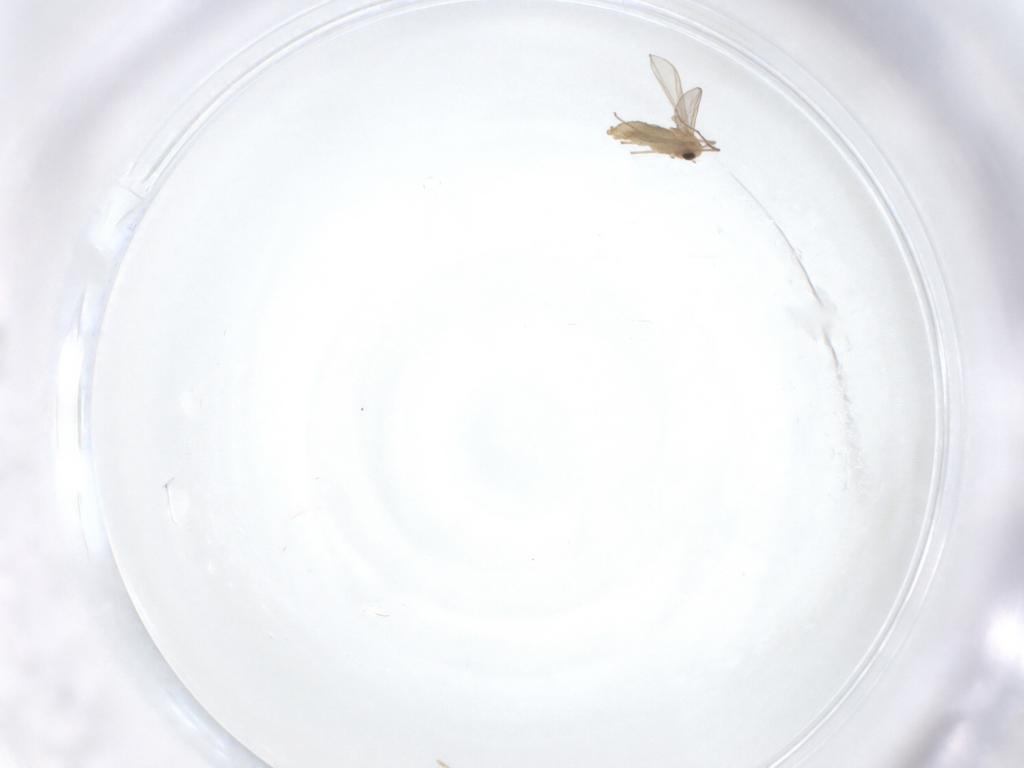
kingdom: Animalia
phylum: Arthropoda
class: Insecta
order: Diptera
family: Chironomidae
